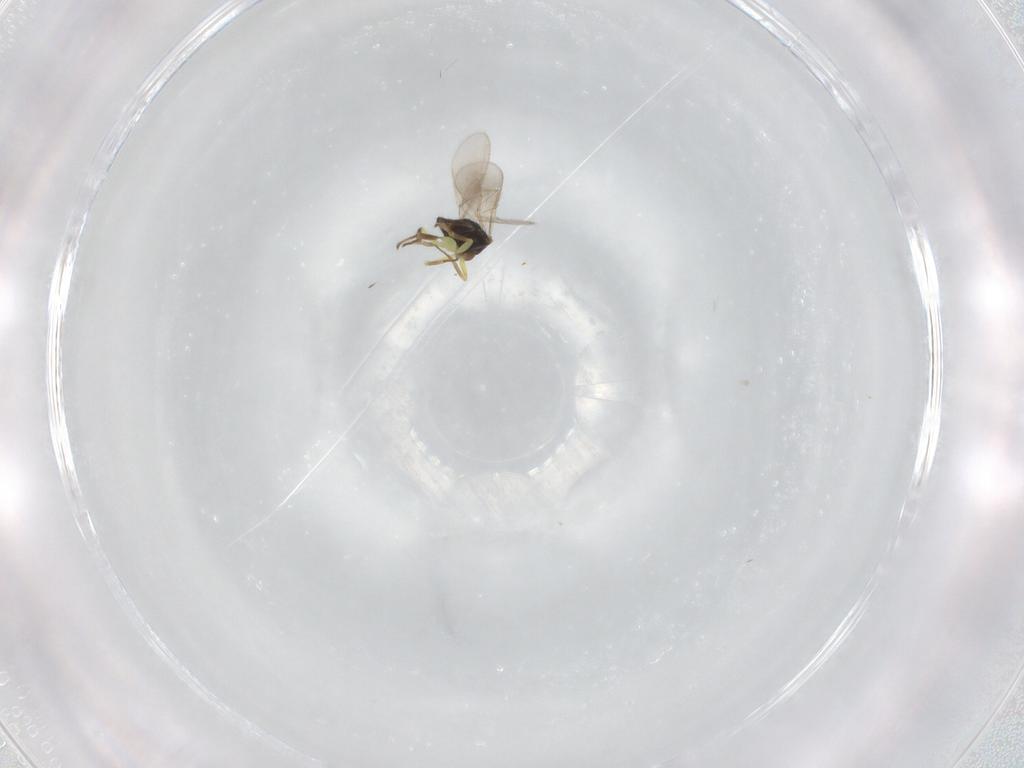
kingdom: Animalia
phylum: Arthropoda
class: Insecta
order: Hymenoptera
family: Aphelinidae
